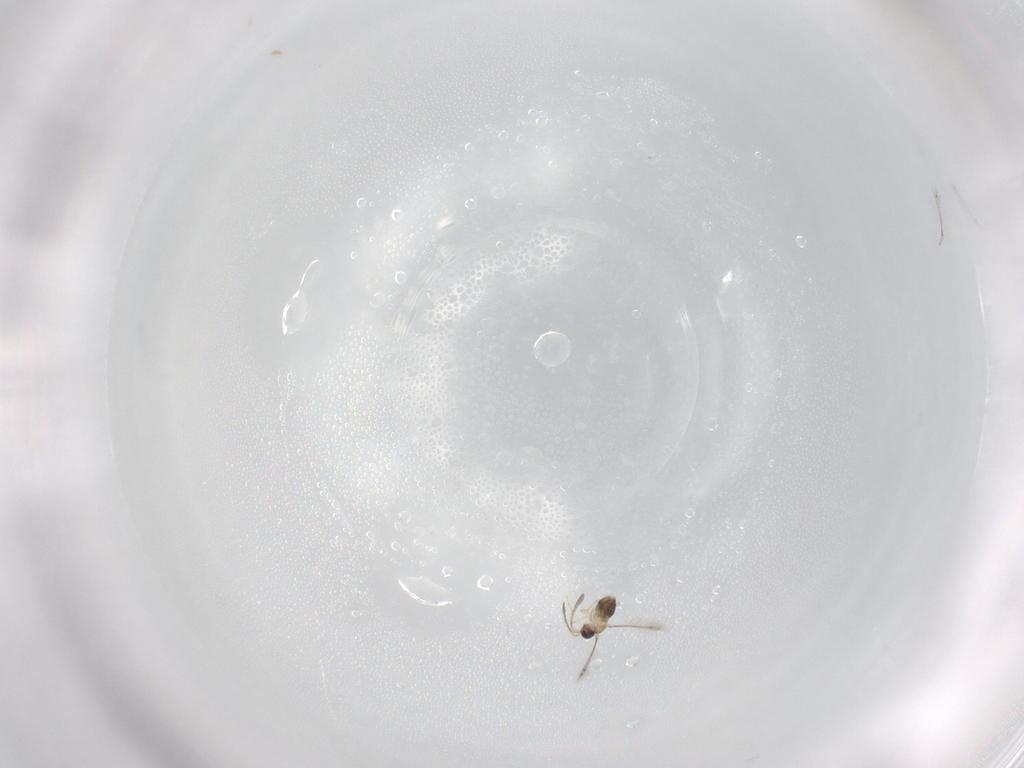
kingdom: Animalia
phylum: Arthropoda
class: Insecta
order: Hymenoptera
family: Mymaridae
